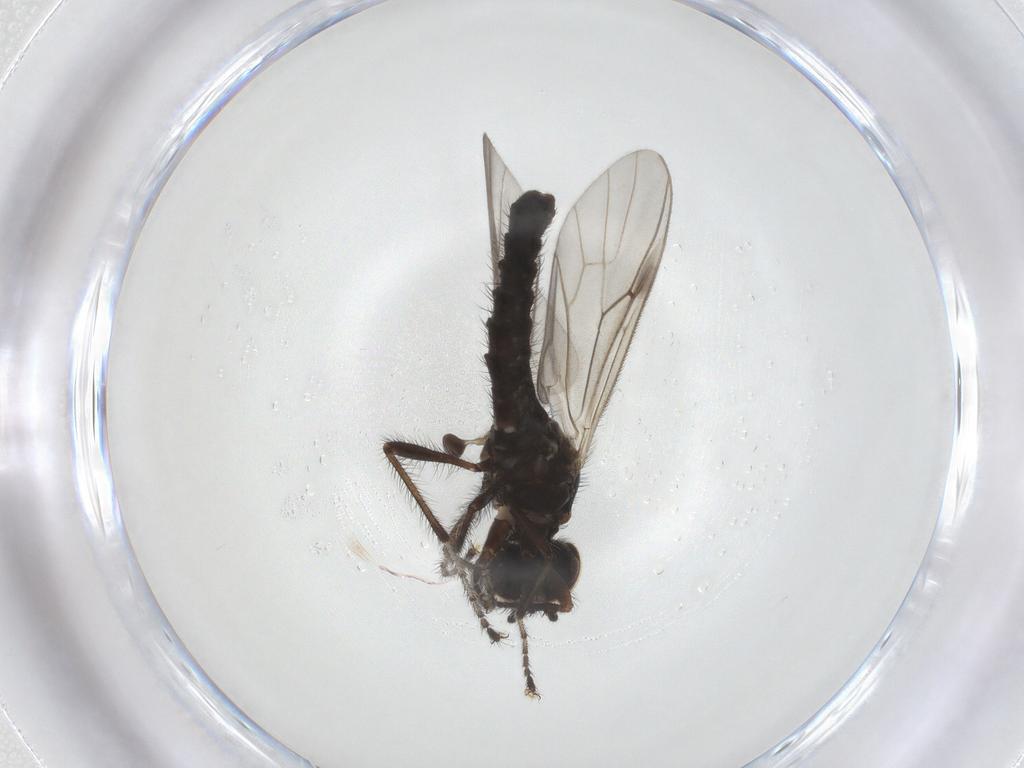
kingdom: Animalia
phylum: Arthropoda
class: Insecta
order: Diptera
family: Bibionidae
